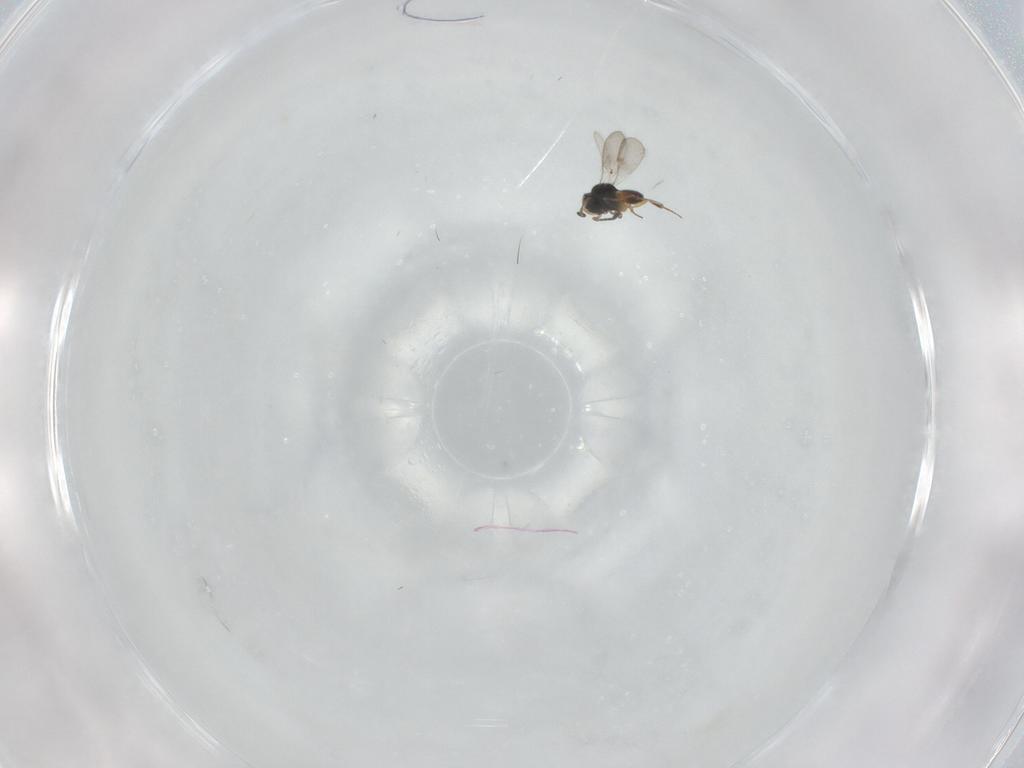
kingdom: Animalia
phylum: Arthropoda
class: Insecta
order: Hymenoptera
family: Scelionidae
